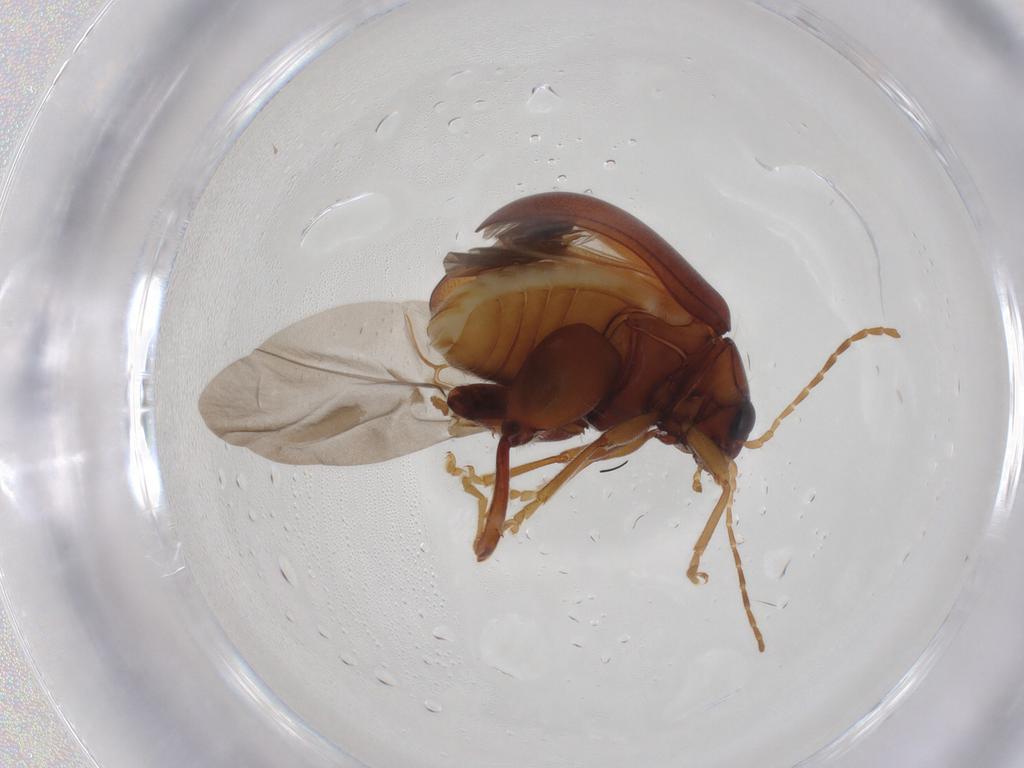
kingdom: Animalia
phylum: Arthropoda
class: Insecta
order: Coleoptera
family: Chrysomelidae
